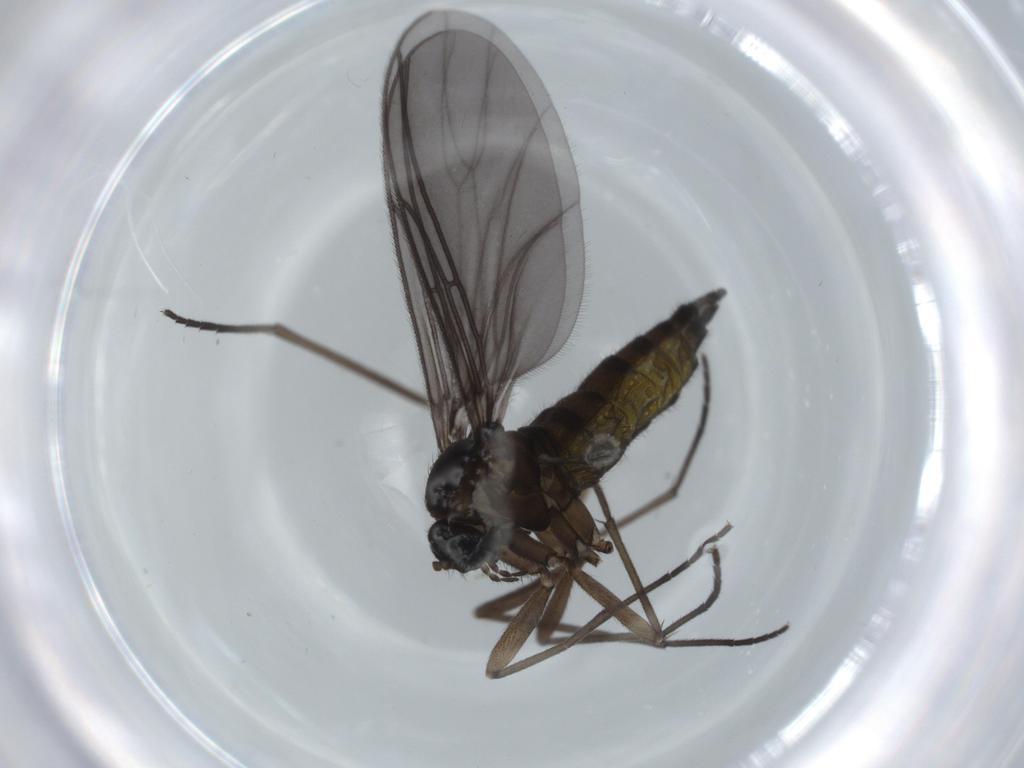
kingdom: Animalia
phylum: Arthropoda
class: Insecta
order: Diptera
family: Sciaridae
